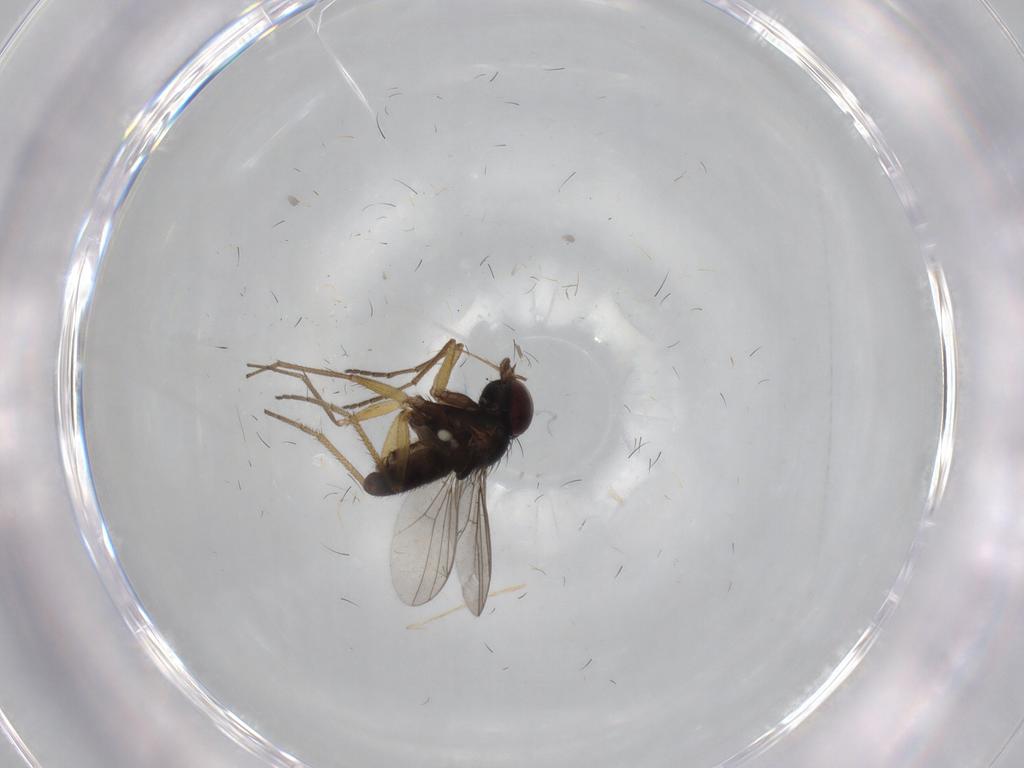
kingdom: Animalia
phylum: Arthropoda
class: Insecta
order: Diptera
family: Dolichopodidae
